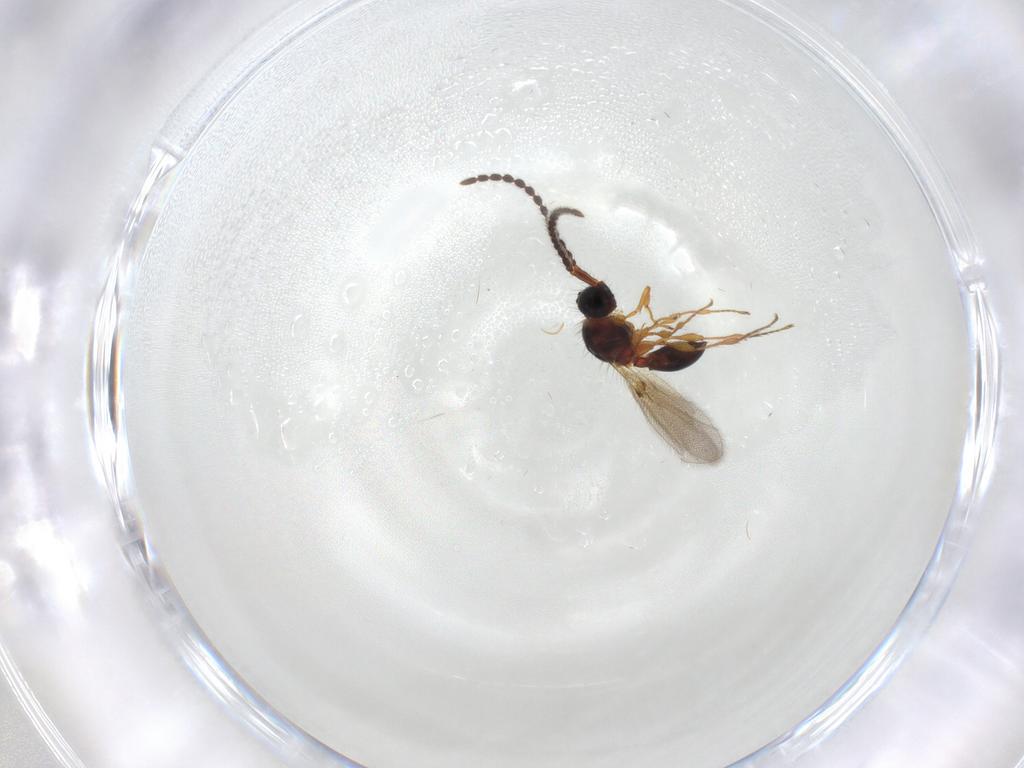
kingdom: Animalia
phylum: Arthropoda
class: Insecta
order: Hymenoptera
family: Diapriidae
